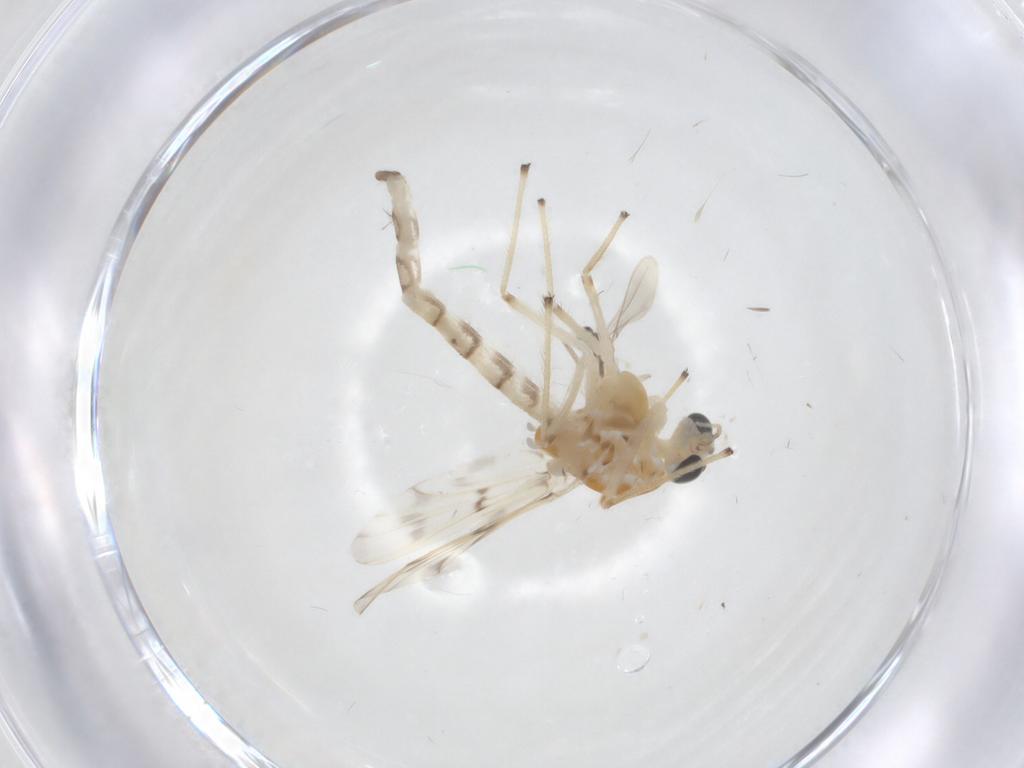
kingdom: Animalia
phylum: Arthropoda
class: Insecta
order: Diptera
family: Chironomidae
